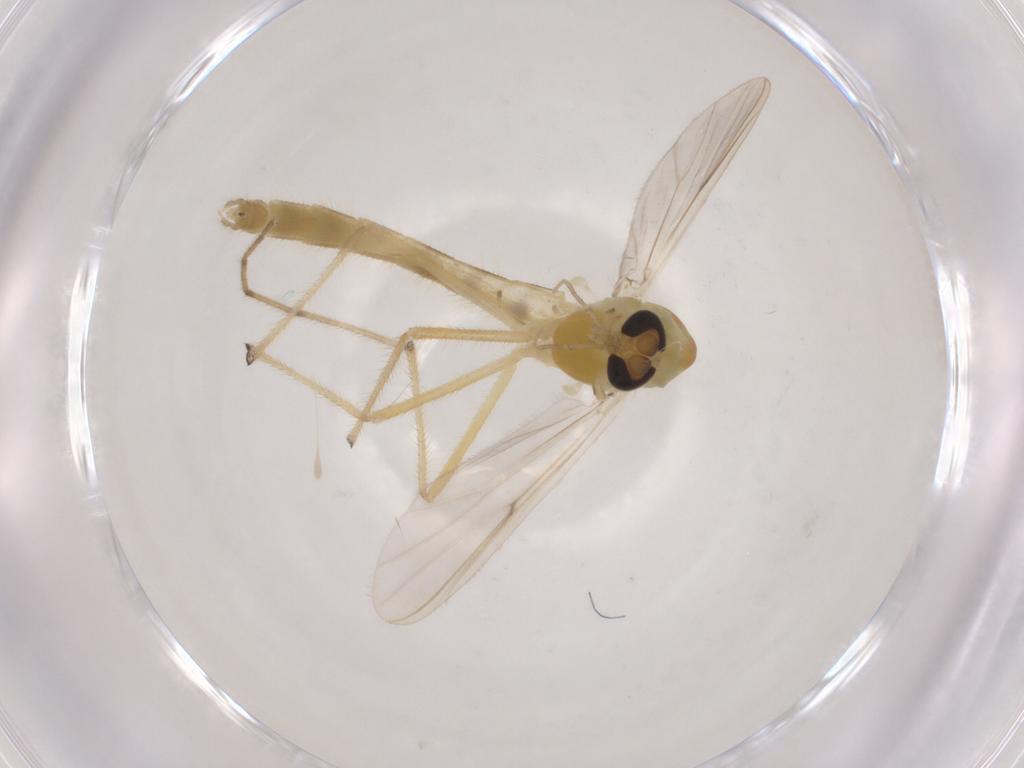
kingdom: Animalia
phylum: Arthropoda
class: Insecta
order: Diptera
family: Chironomidae
